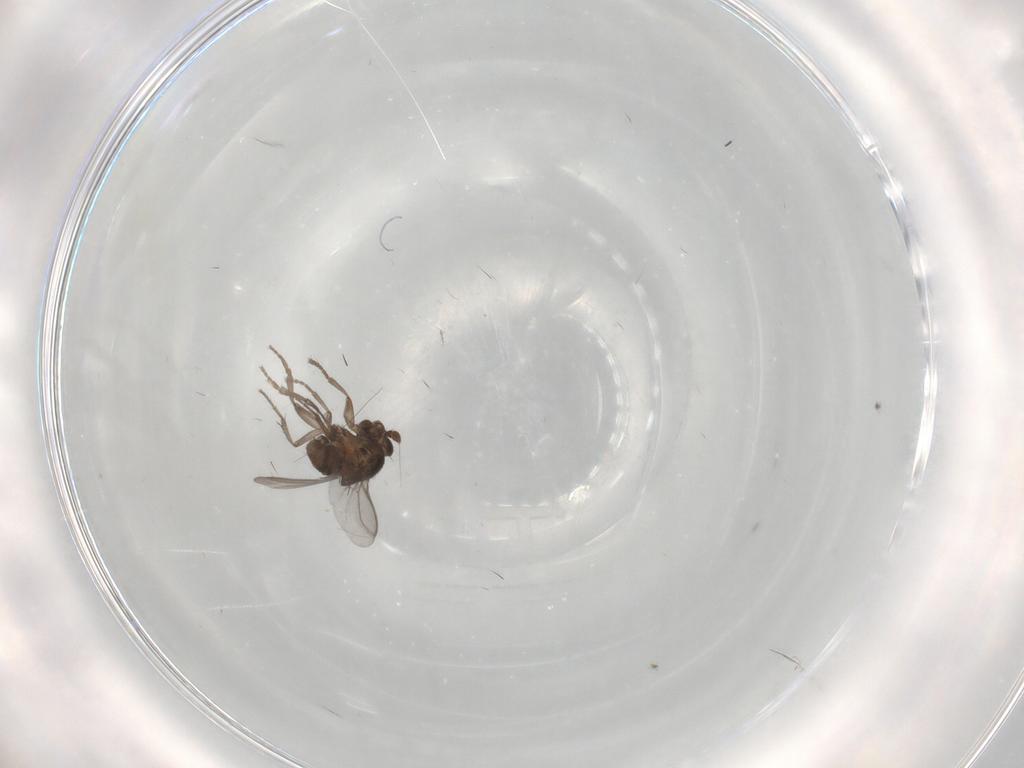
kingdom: Animalia
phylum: Arthropoda
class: Insecta
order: Diptera
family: Sphaeroceridae
